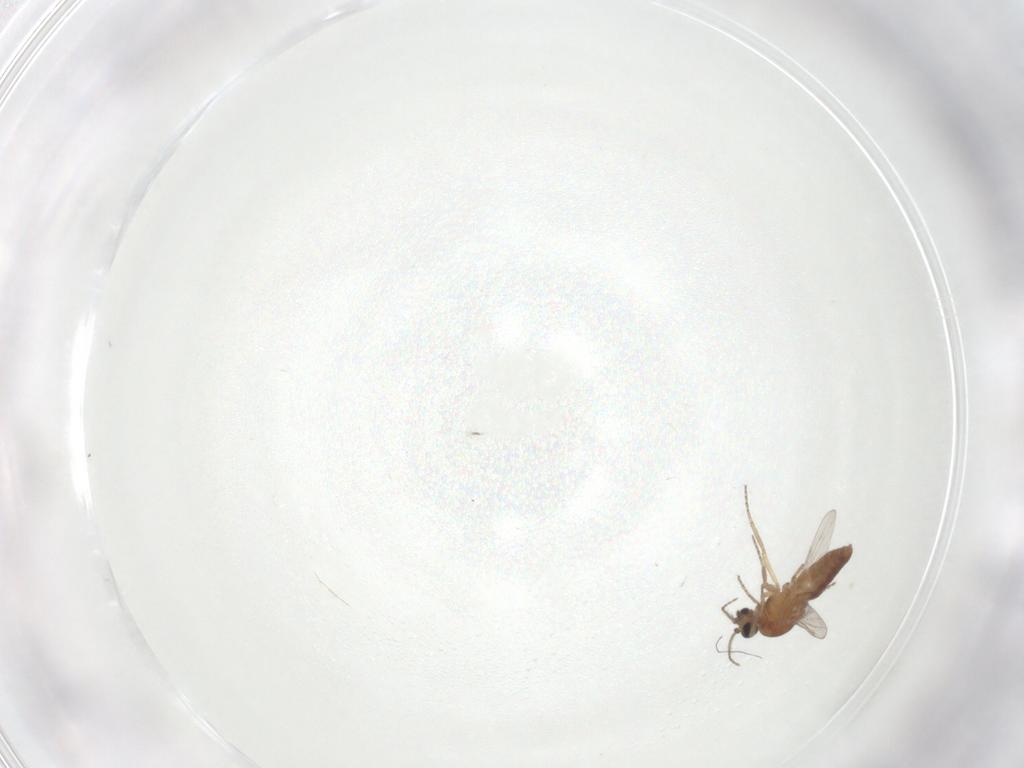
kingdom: Animalia
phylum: Arthropoda
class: Insecta
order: Diptera
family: Ceratopogonidae
